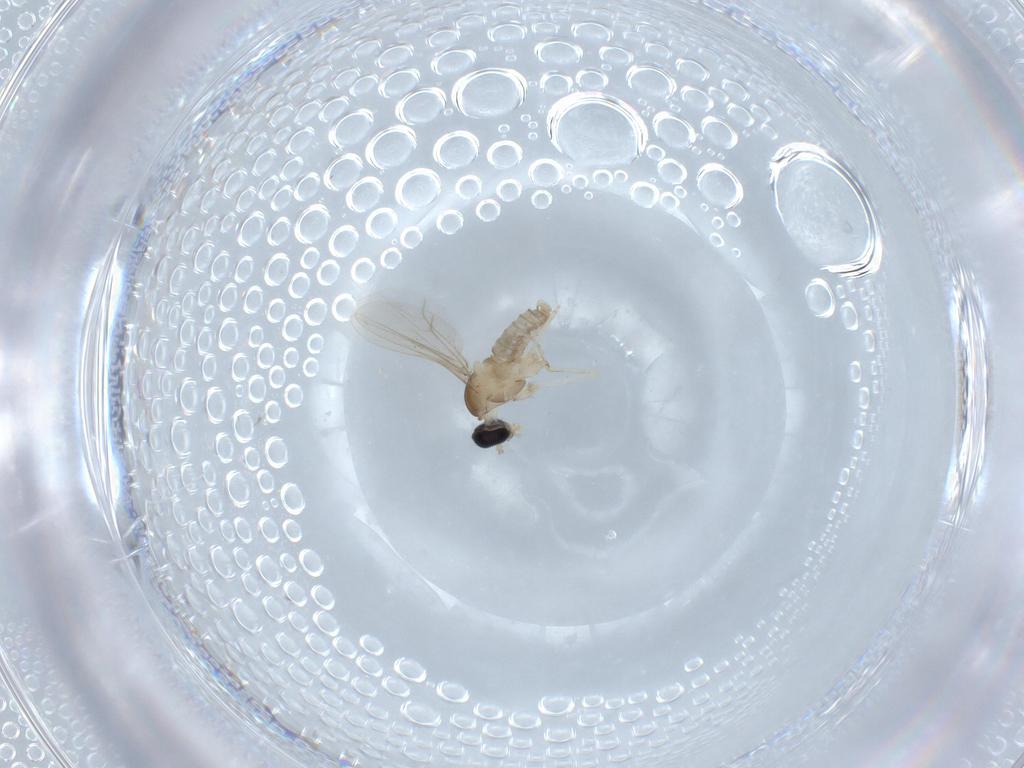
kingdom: Animalia
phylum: Arthropoda
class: Insecta
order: Diptera
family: Cecidomyiidae
